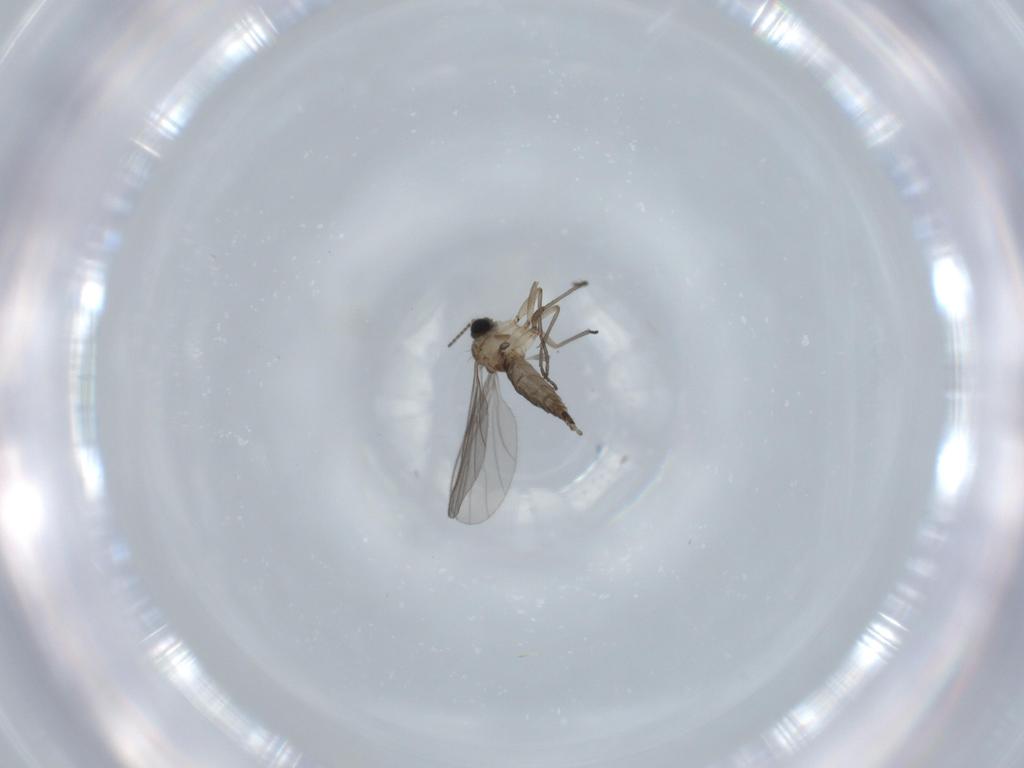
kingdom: Animalia
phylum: Arthropoda
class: Insecta
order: Diptera
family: Sciaridae
